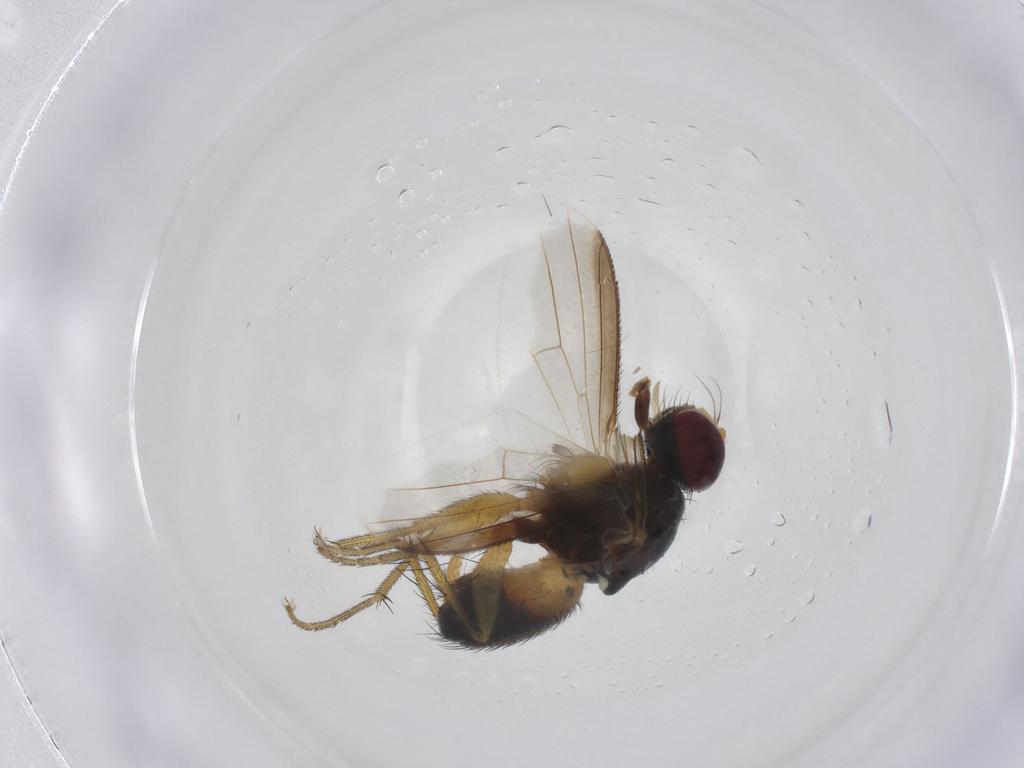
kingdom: Animalia
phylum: Arthropoda
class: Insecta
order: Diptera
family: Muscidae
